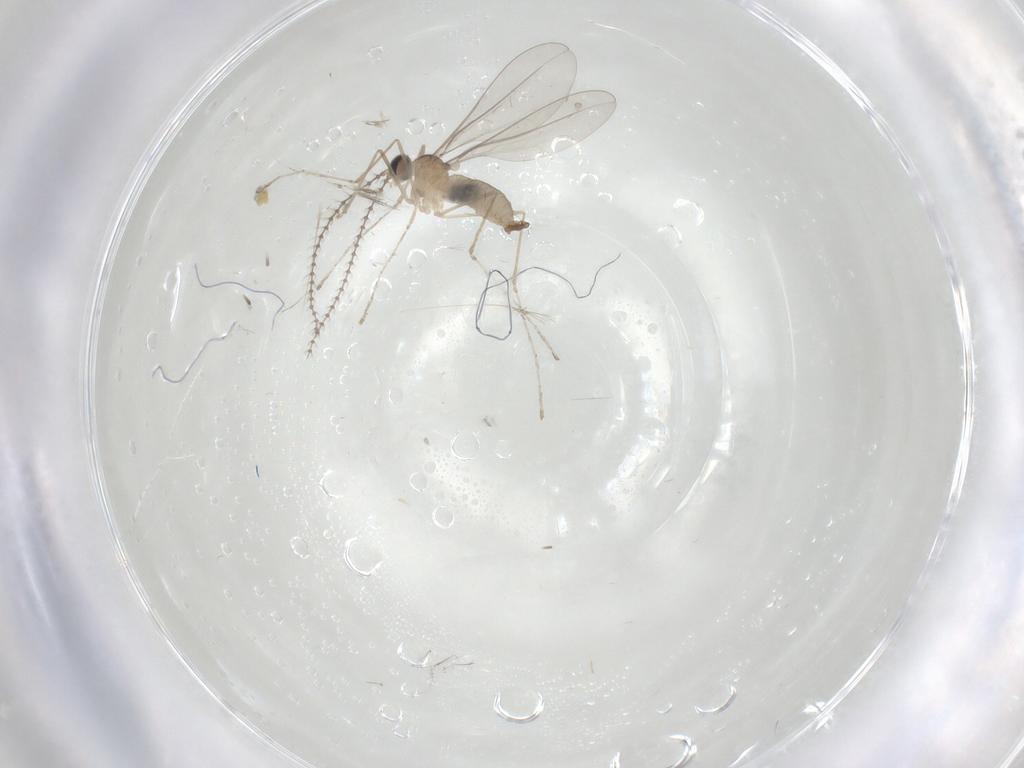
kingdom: Animalia
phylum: Arthropoda
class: Insecta
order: Diptera
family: Cecidomyiidae
